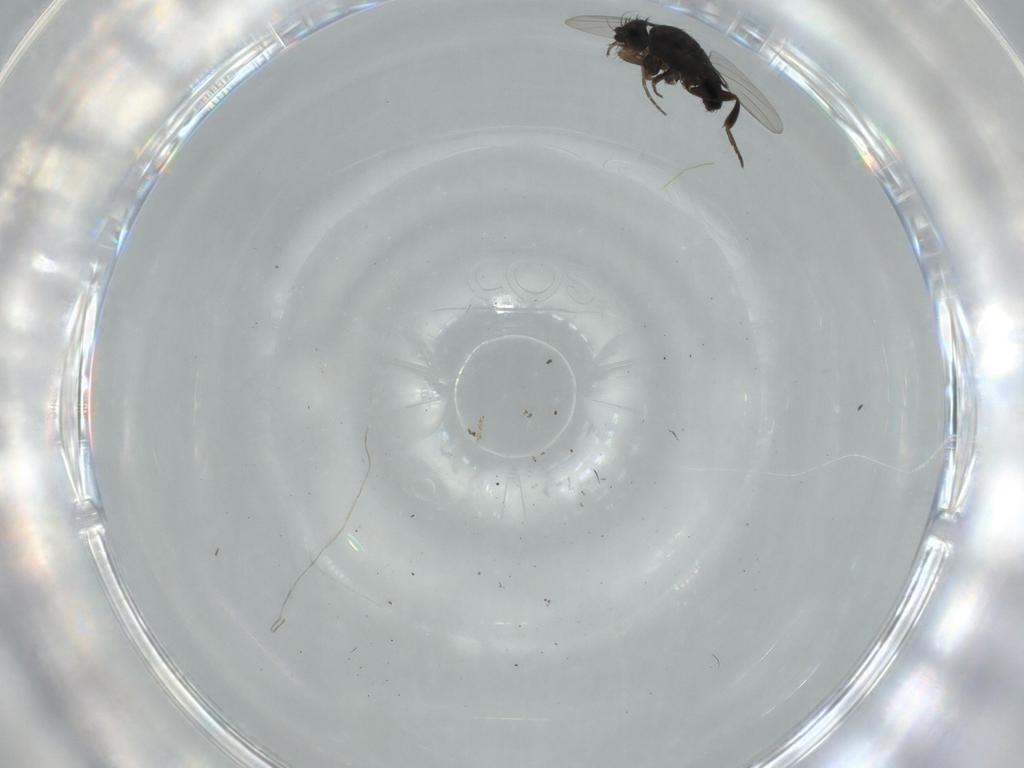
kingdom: Animalia
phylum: Arthropoda
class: Insecta
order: Diptera
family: Phoridae
